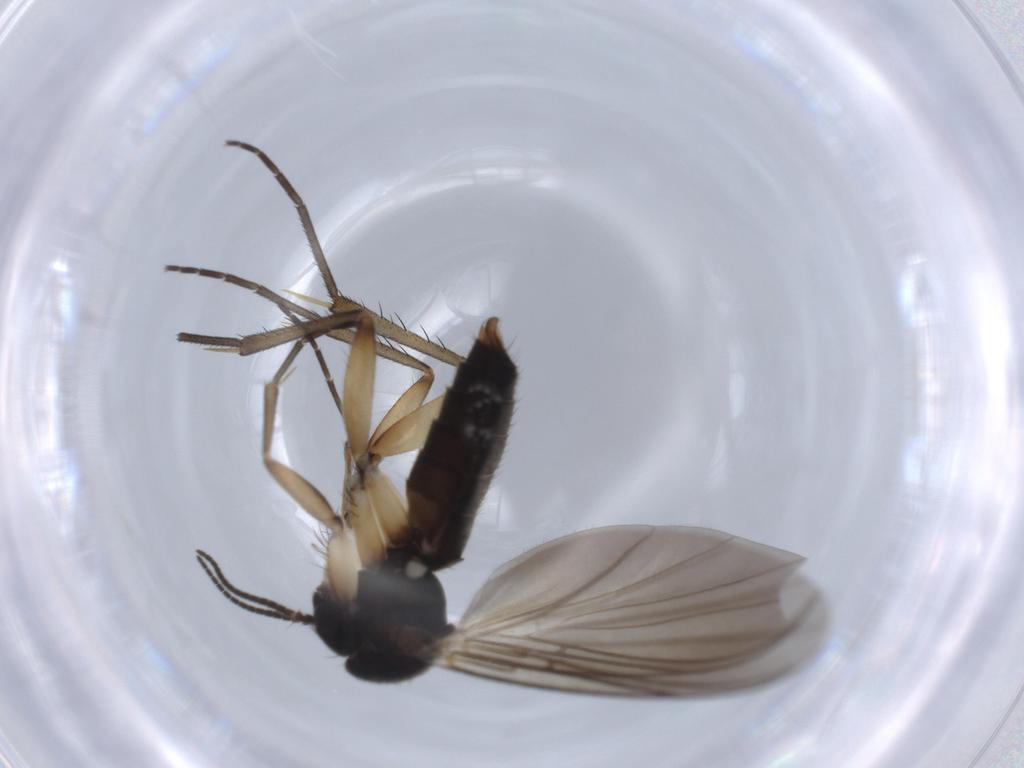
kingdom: Animalia
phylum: Arthropoda
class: Insecta
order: Diptera
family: Mycetophilidae
